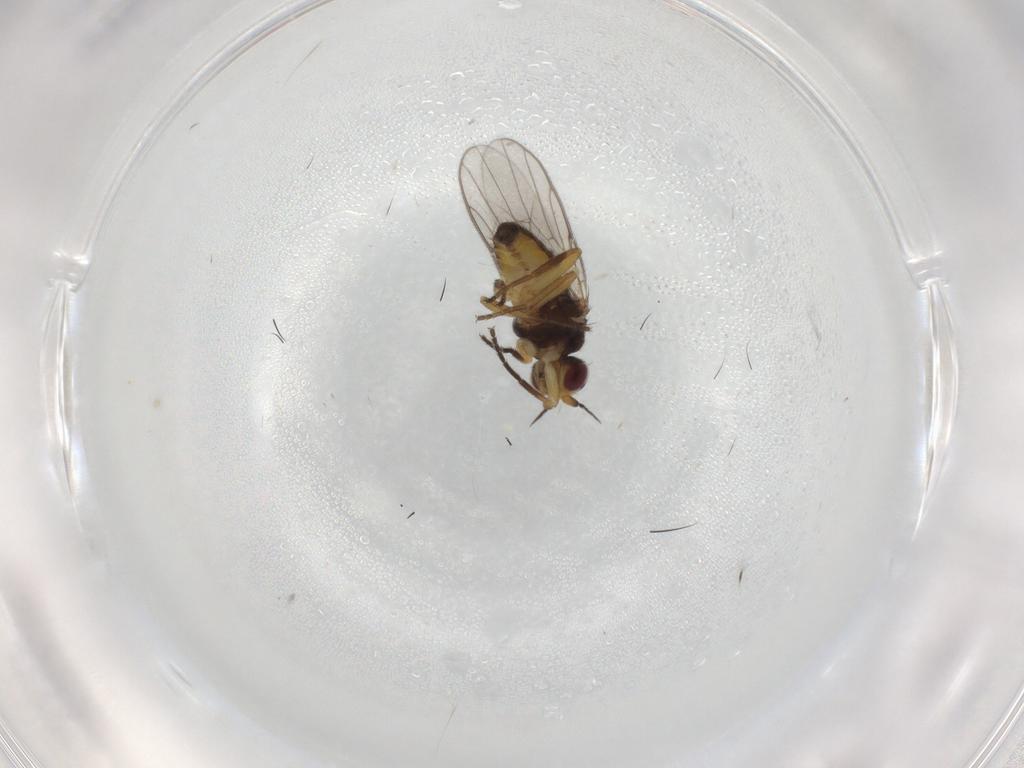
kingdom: Animalia
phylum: Arthropoda
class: Insecta
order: Diptera
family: Chloropidae
